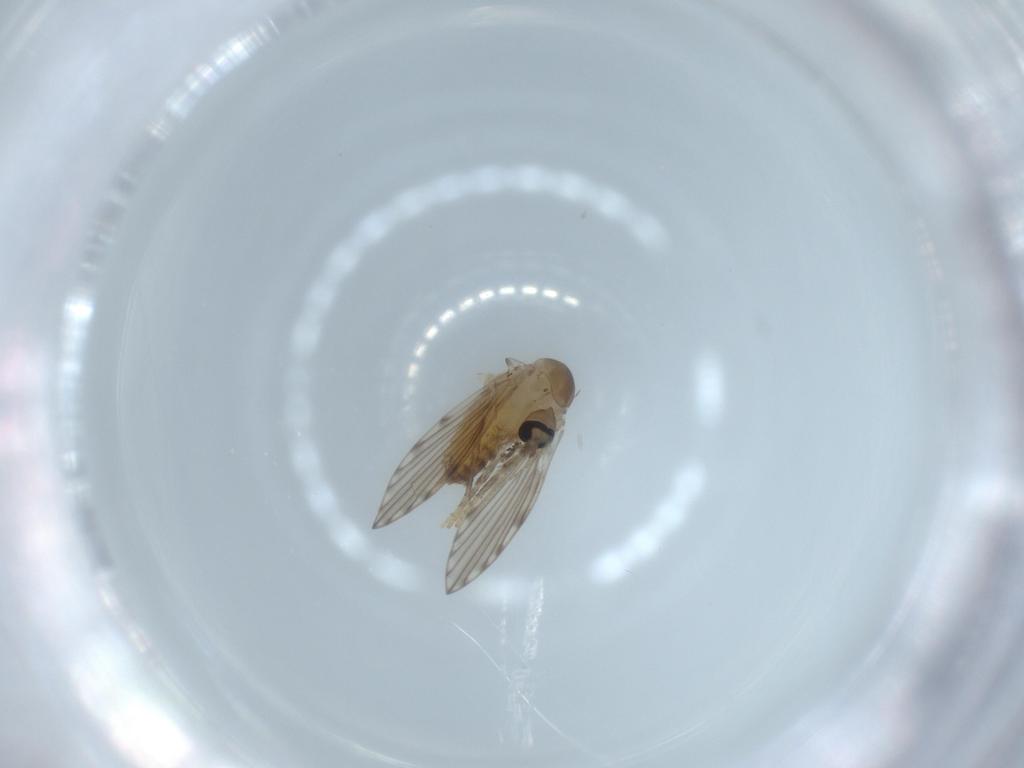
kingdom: Animalia
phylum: Arthropoda
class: Insecta
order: Diptera
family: Psychodidae
